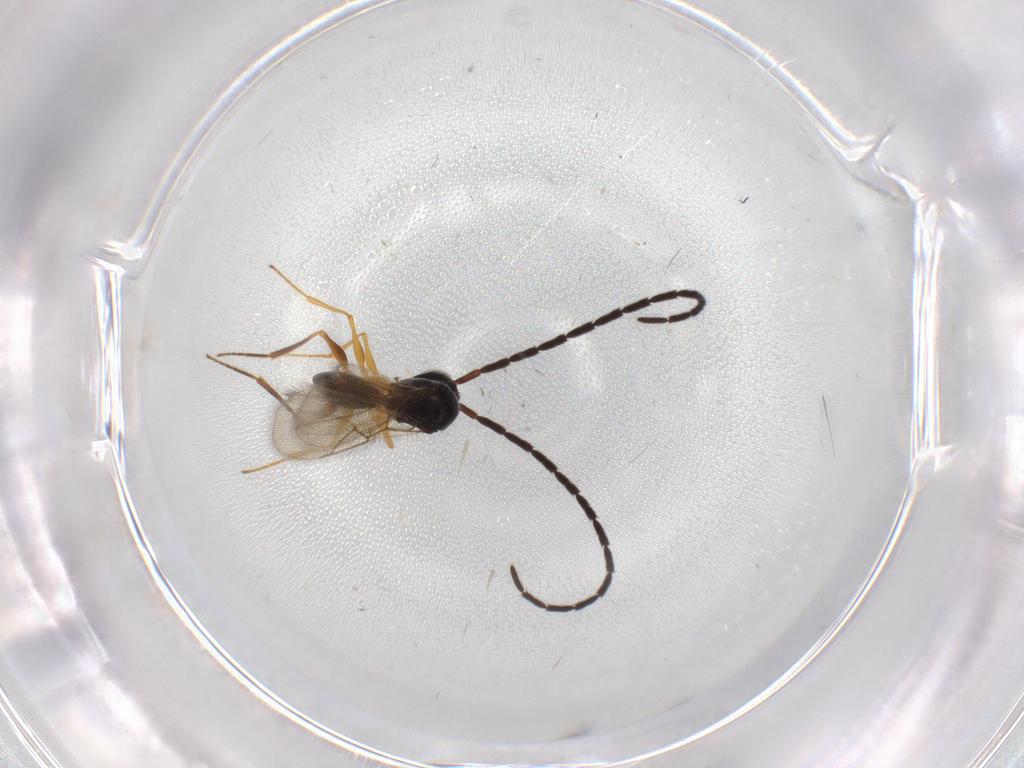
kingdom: Animalia
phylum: Arthropoda
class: Insecta
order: Hymenoptera
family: Figitidae
